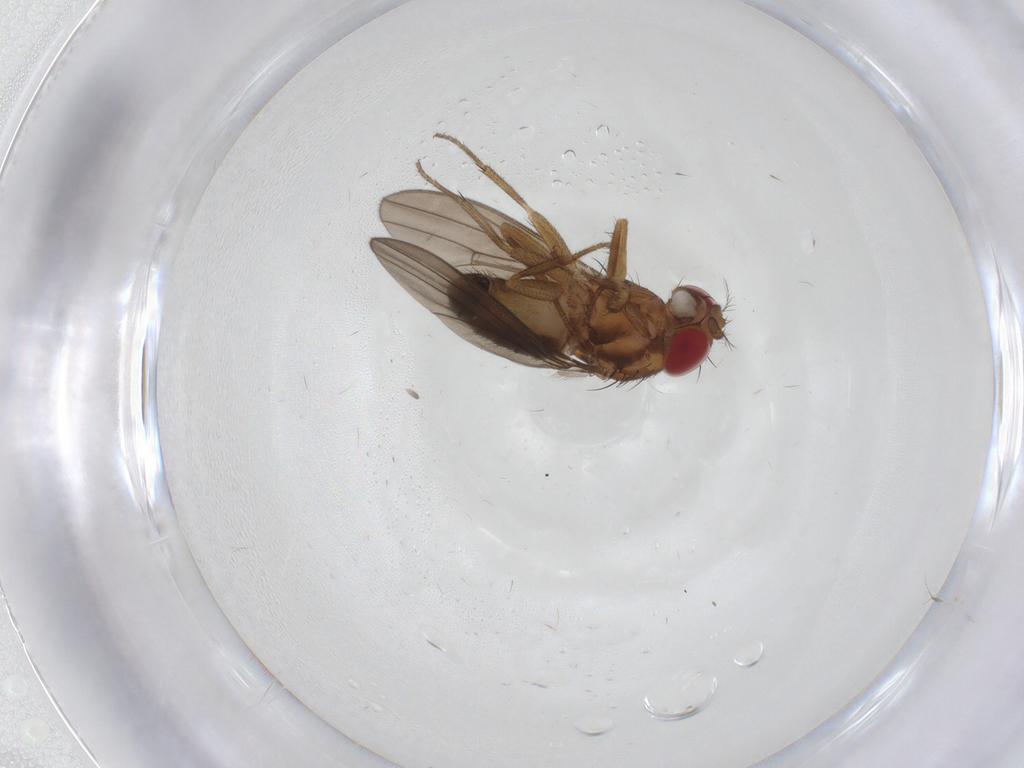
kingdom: Animalia
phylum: Arthropoda
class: Insecta
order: Diptera
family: Drosophilidae
